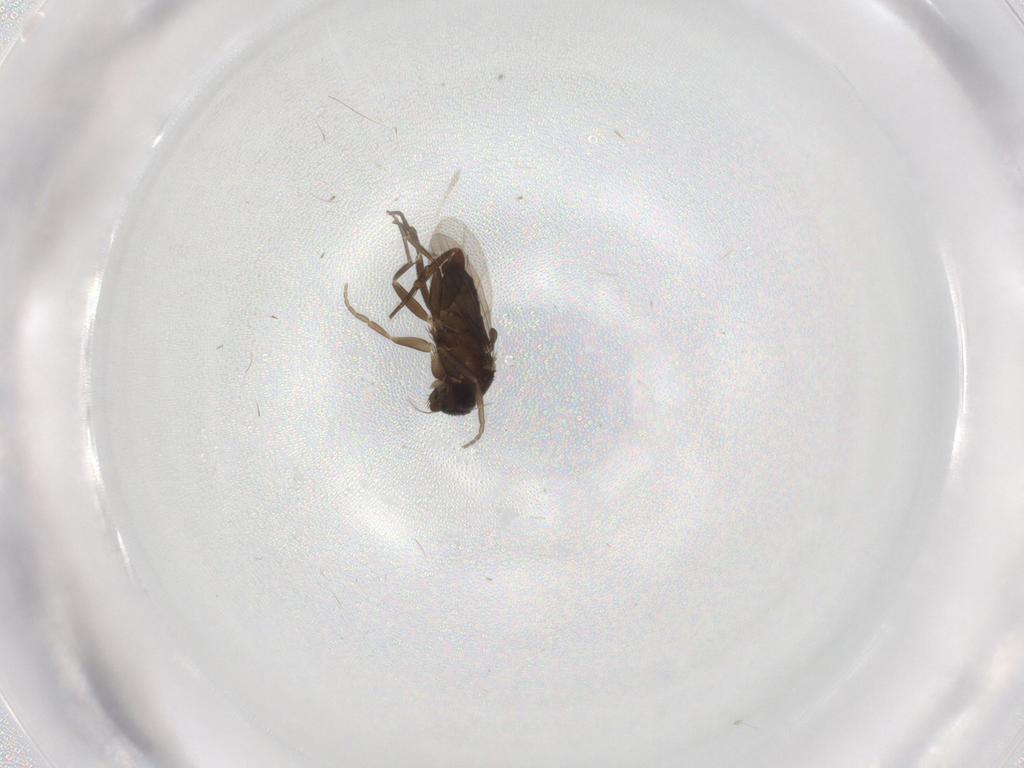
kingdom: Animalia
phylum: Arthropoda
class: Insecta
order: Diptera
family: Phoridae
